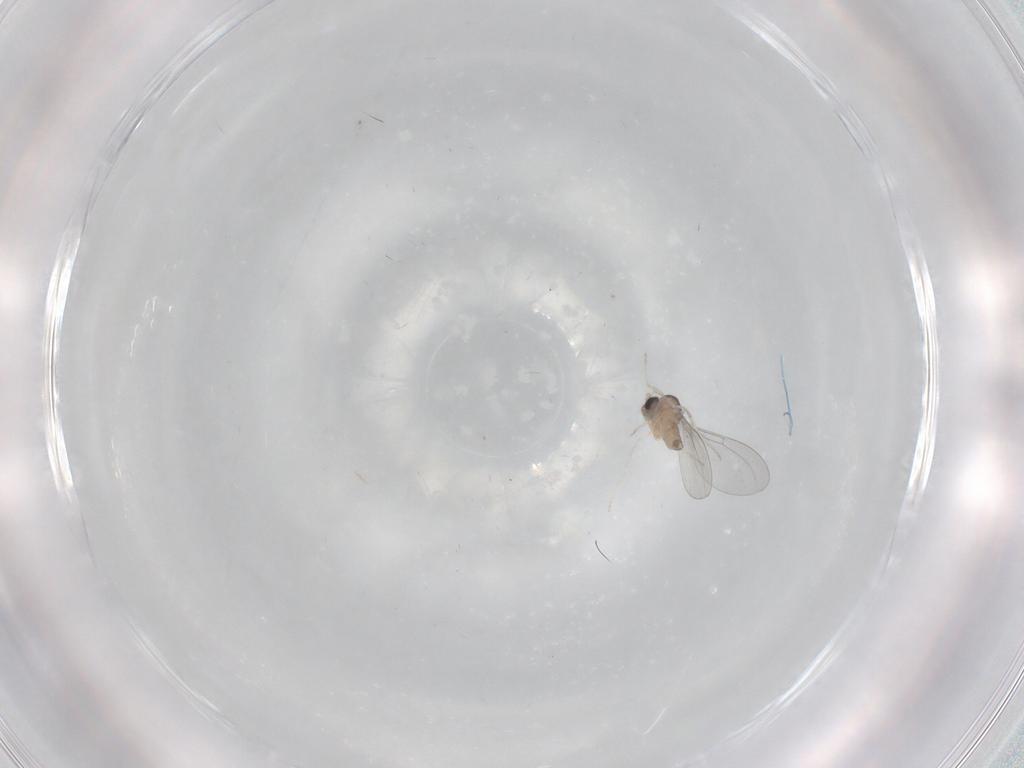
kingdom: Animalia
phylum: Arthropoda
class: Insecta
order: Diptera
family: Cecidomyiidae
